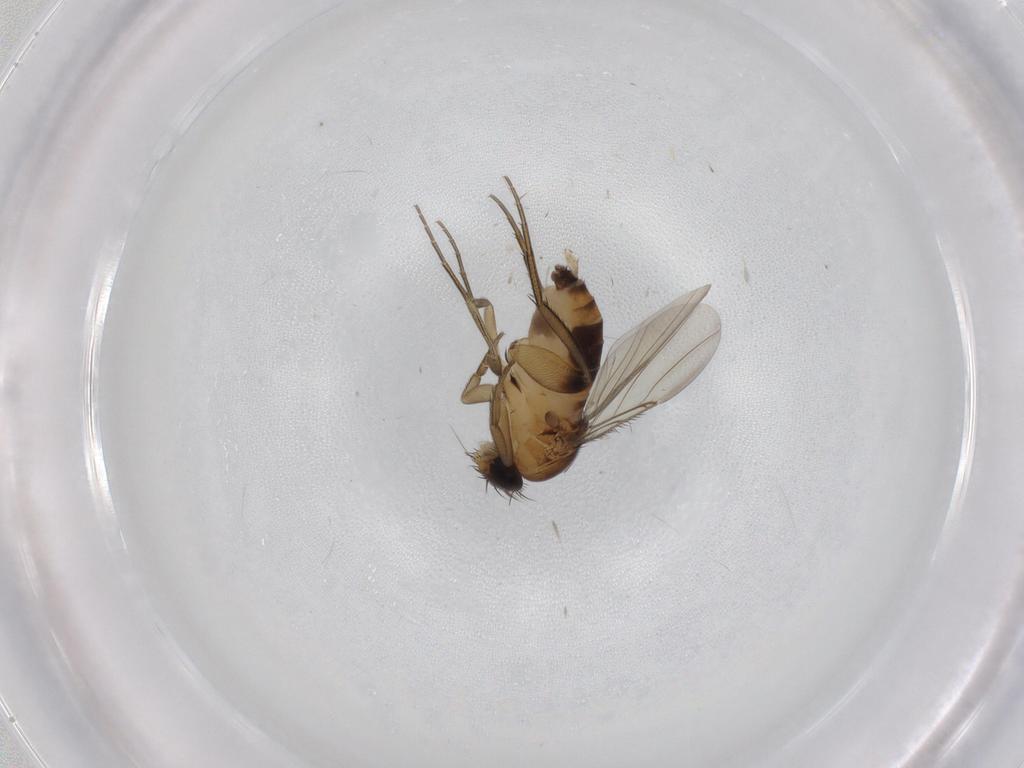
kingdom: Animalia
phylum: Arthropoda
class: Insecta
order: Diptera
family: Phoridae
